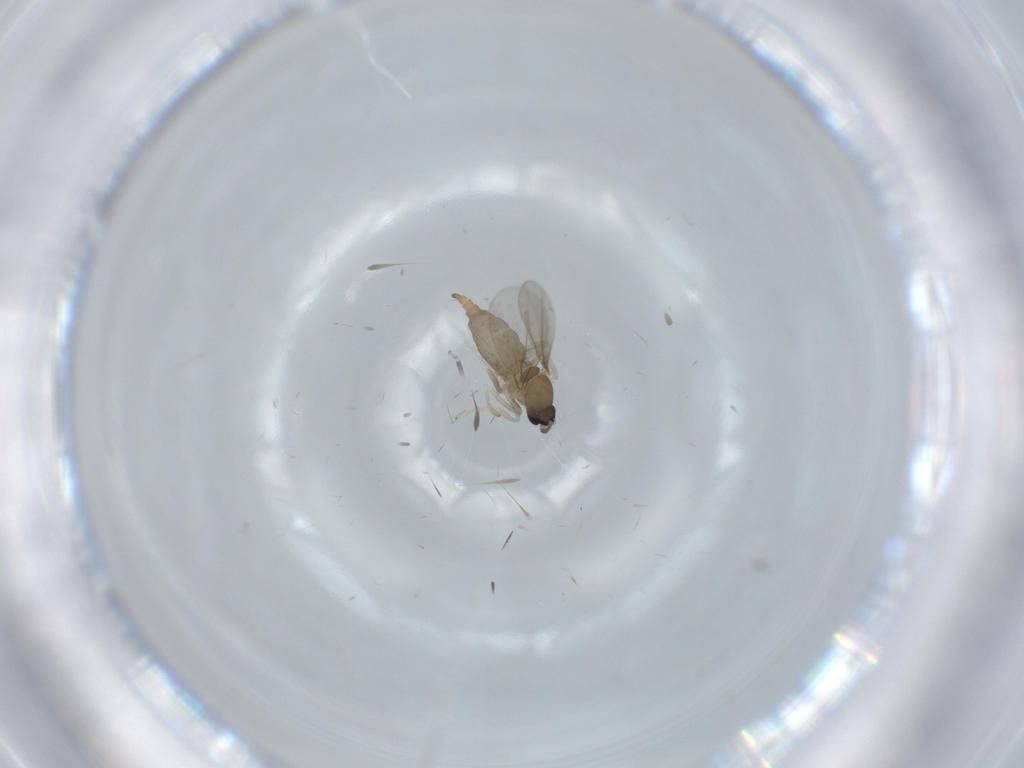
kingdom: Animalia
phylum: Arthropoda
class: Insecta
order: Diptera
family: Cecidomyiidae
